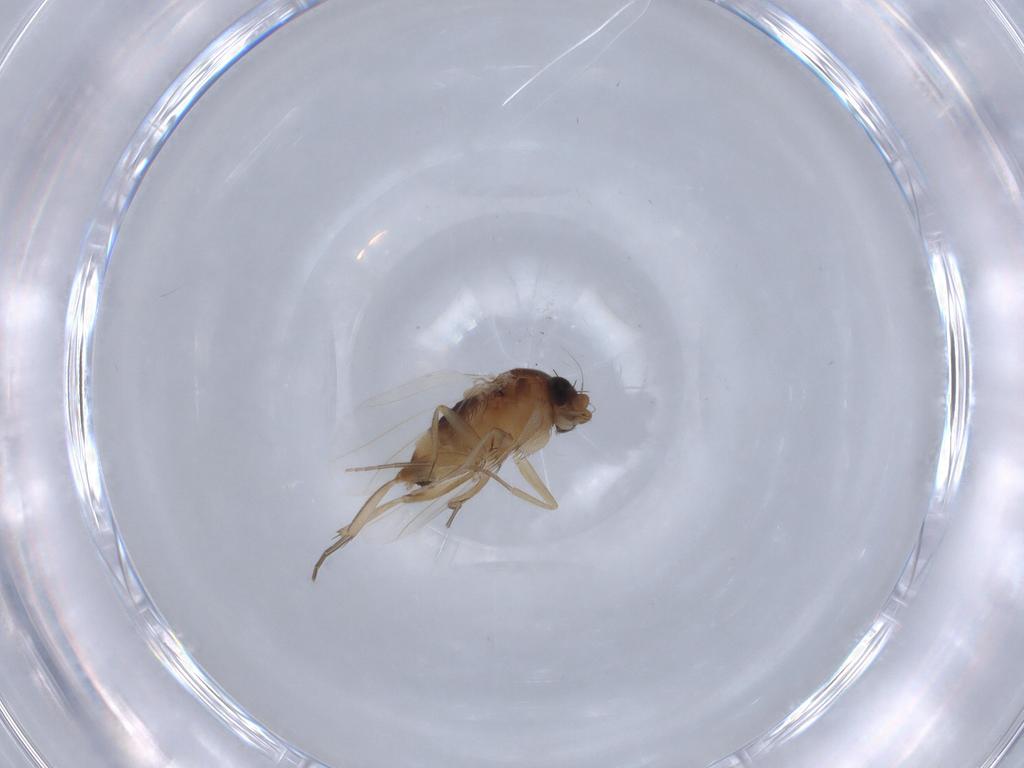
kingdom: Animalia
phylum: Arthropoda
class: Insecta
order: Diptera
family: Phoridae
